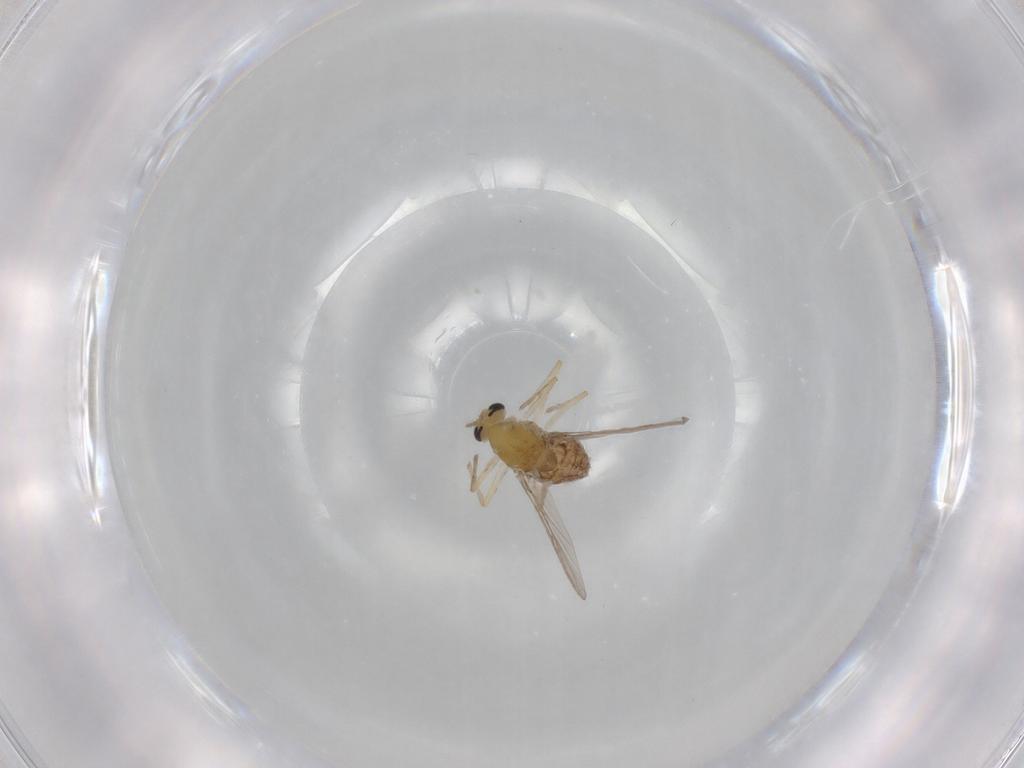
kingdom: Animalia
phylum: Arthropoda
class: Insecta
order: Diptera
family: Chironomidae
